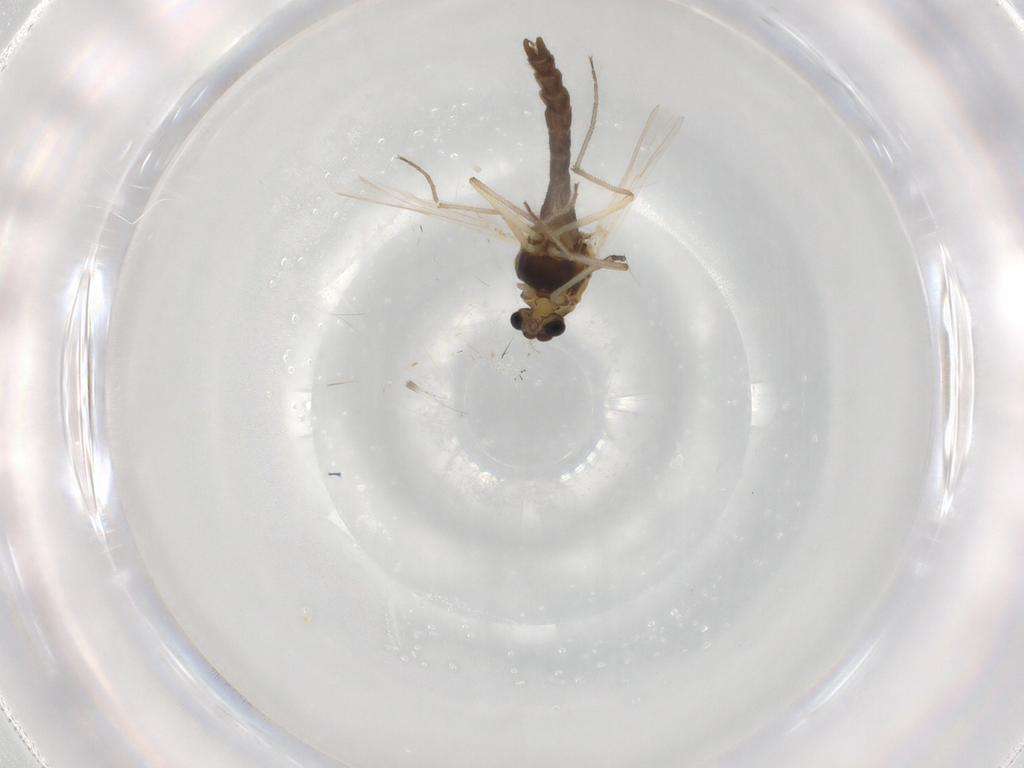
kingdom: Animalia
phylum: Arthropoda
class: Insecta
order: Diptera
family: Chironomidae
